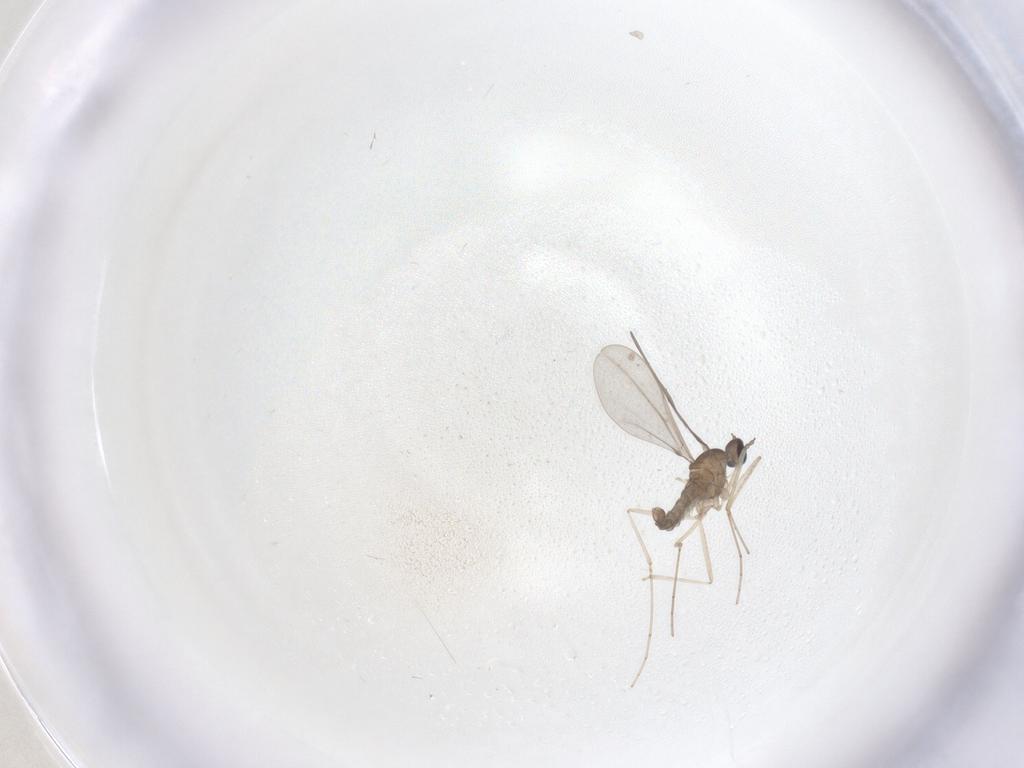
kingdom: Animalia
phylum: Arthropoda
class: Insecta
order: Diptera
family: Cecidomyiidae
